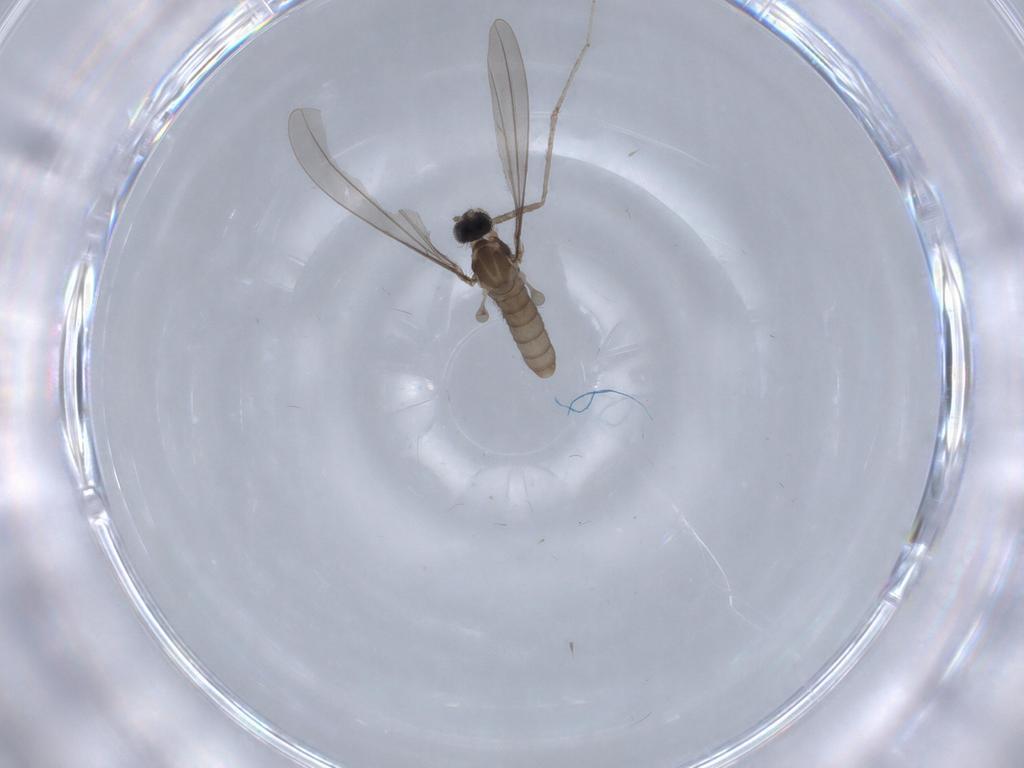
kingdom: Animalia
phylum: Arthropoda
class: Insecta
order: Diptera
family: Cecidomyiidae
